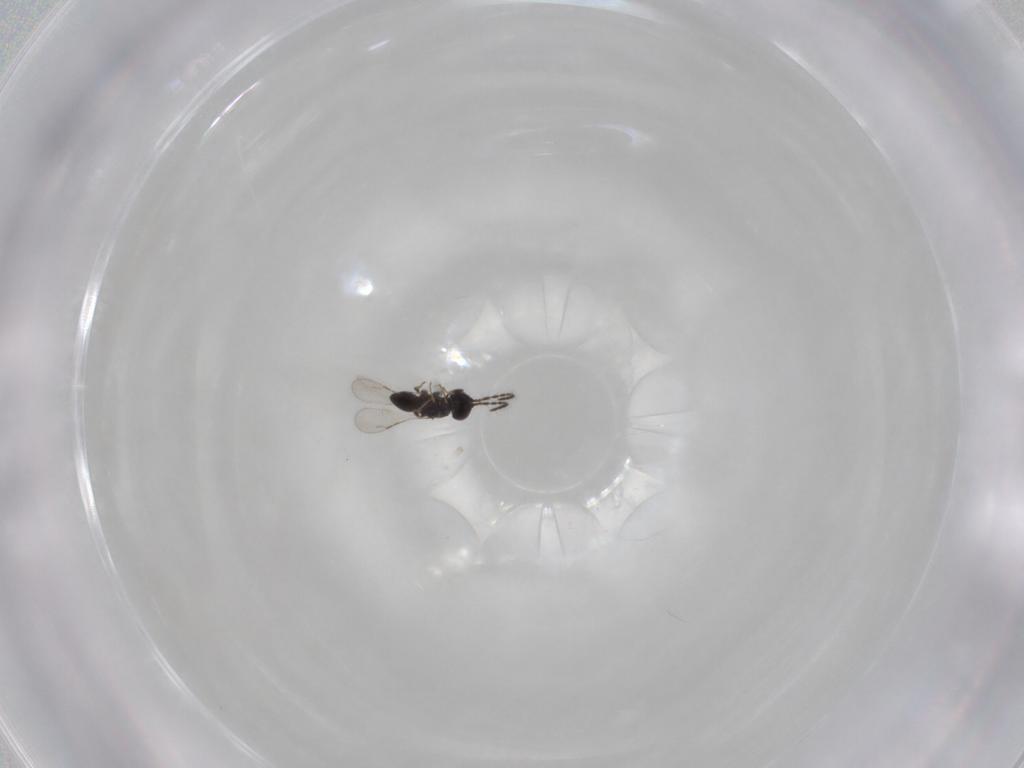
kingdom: Animalia
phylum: Arthropoda
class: Insecta
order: Hymenoptera
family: Ceraphronidae
